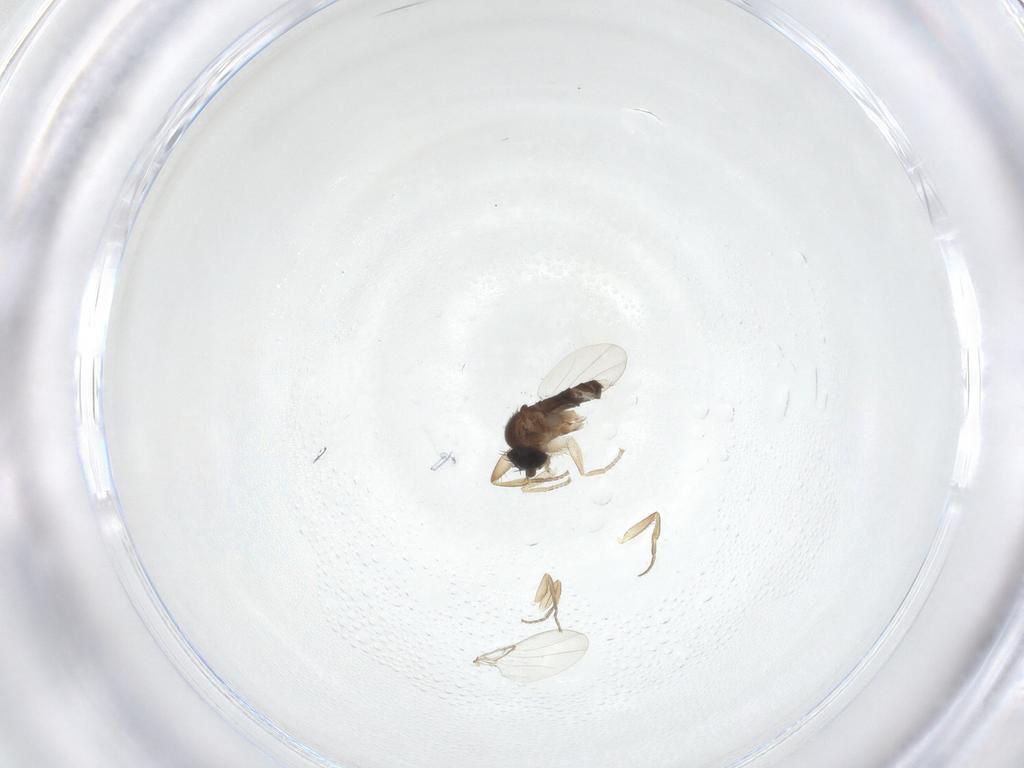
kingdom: Animalia
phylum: Arthropoda
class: Insecta
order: Diptera
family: Phoridae
